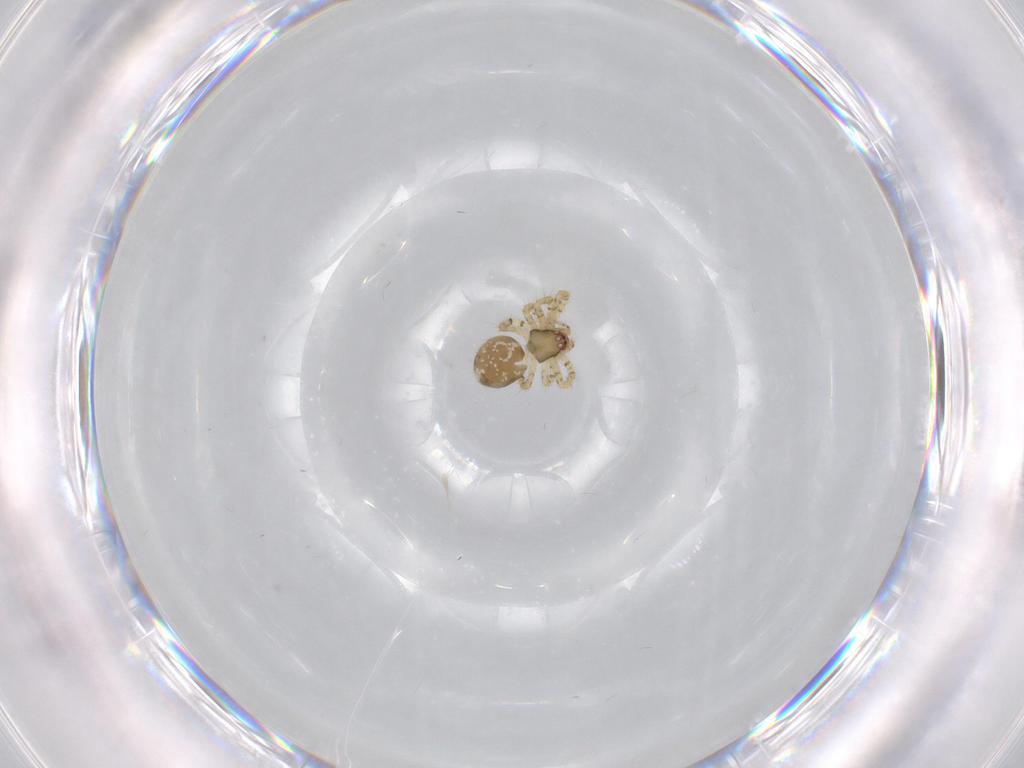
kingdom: Animalia
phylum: Arthropoda
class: Arachnida
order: Araneae
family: Theridiidae
